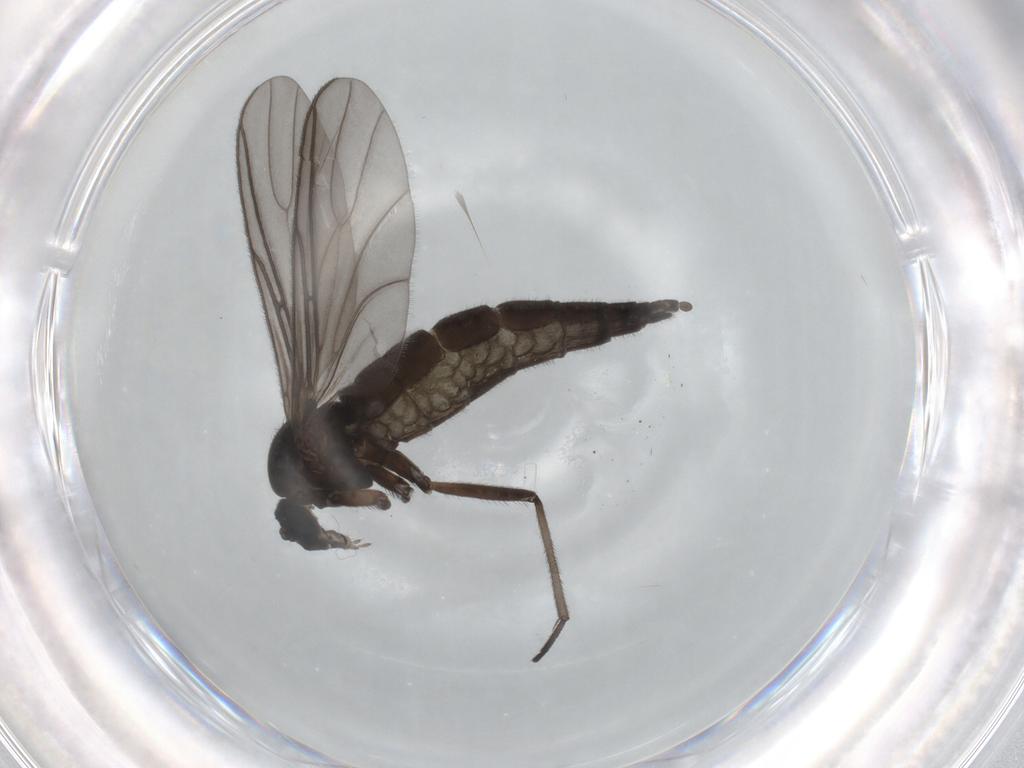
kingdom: Animalia
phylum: Arthropoda
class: Insecta
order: Diptera
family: Sciaridae
